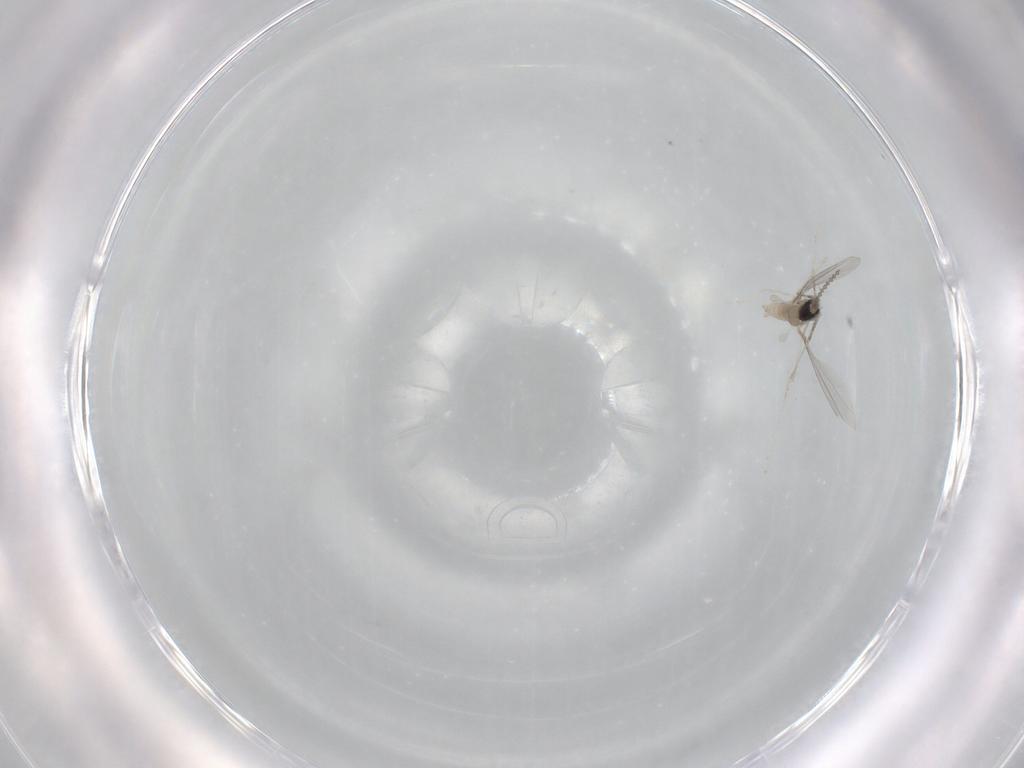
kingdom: Animalia
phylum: Arthropoda
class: Insecta
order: Diptera
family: Cecidomyiidae
